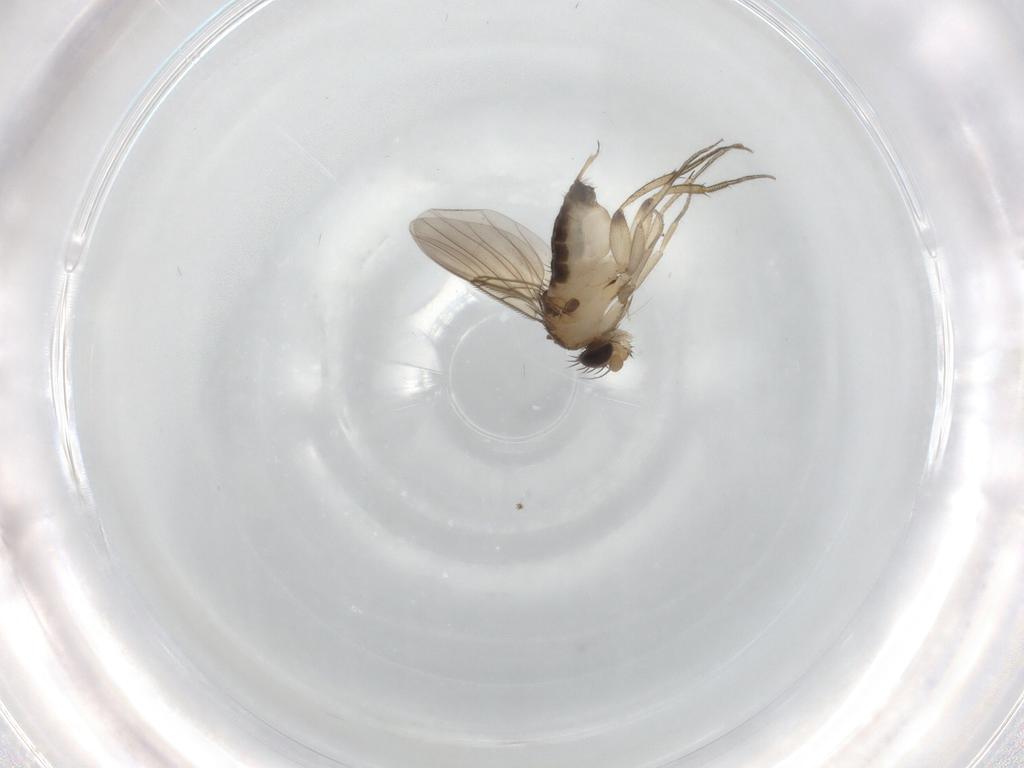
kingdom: Animalia
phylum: Arthropoda
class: Insecta
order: Diptera
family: Phoridae
